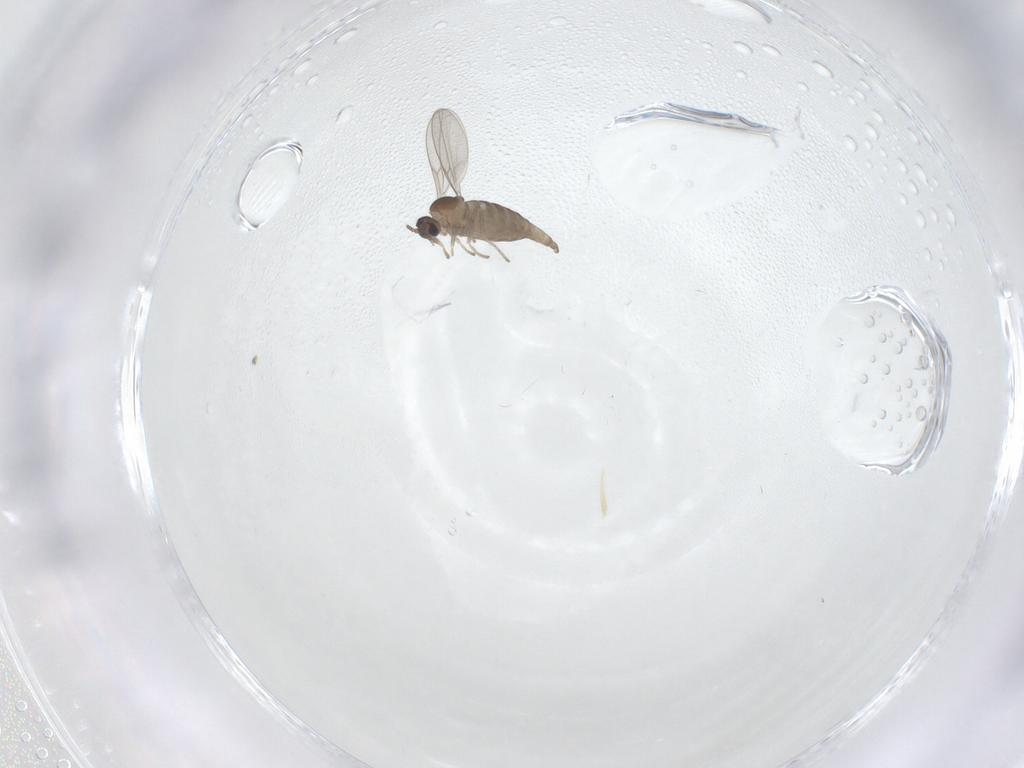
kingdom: Animalia
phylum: Arthropoda
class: Insecta
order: Diptera
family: Cecidomyiidae
